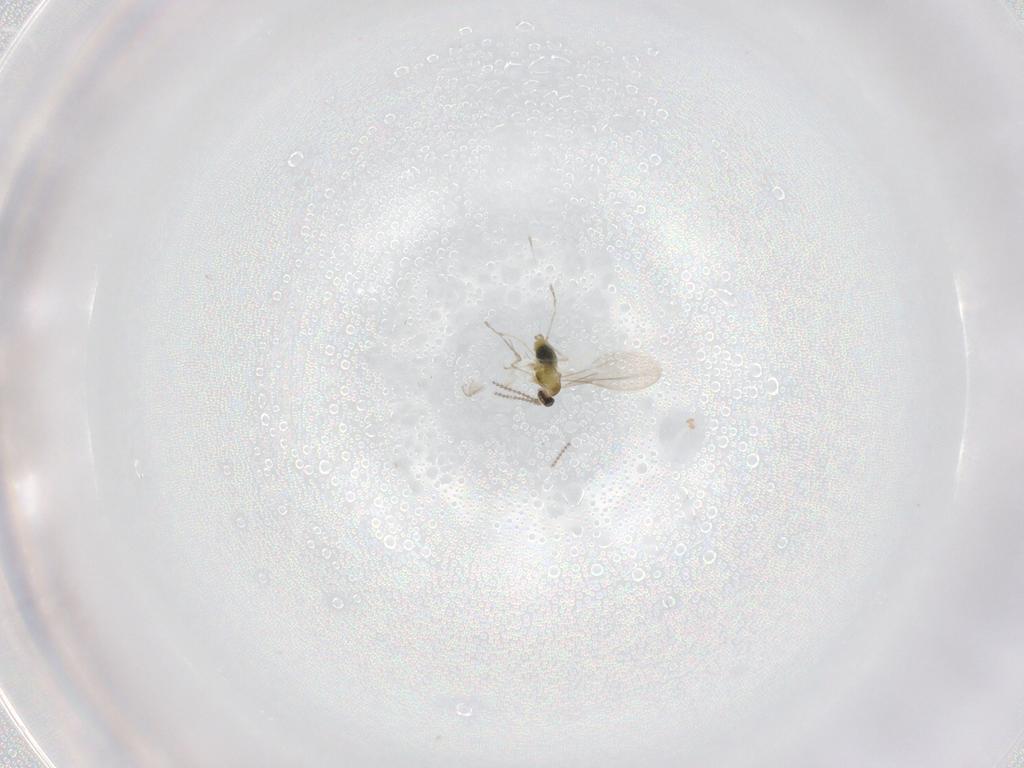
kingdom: Animalia
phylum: Arthropoda
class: Insecta
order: Diptera
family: Cecidomyiidae
